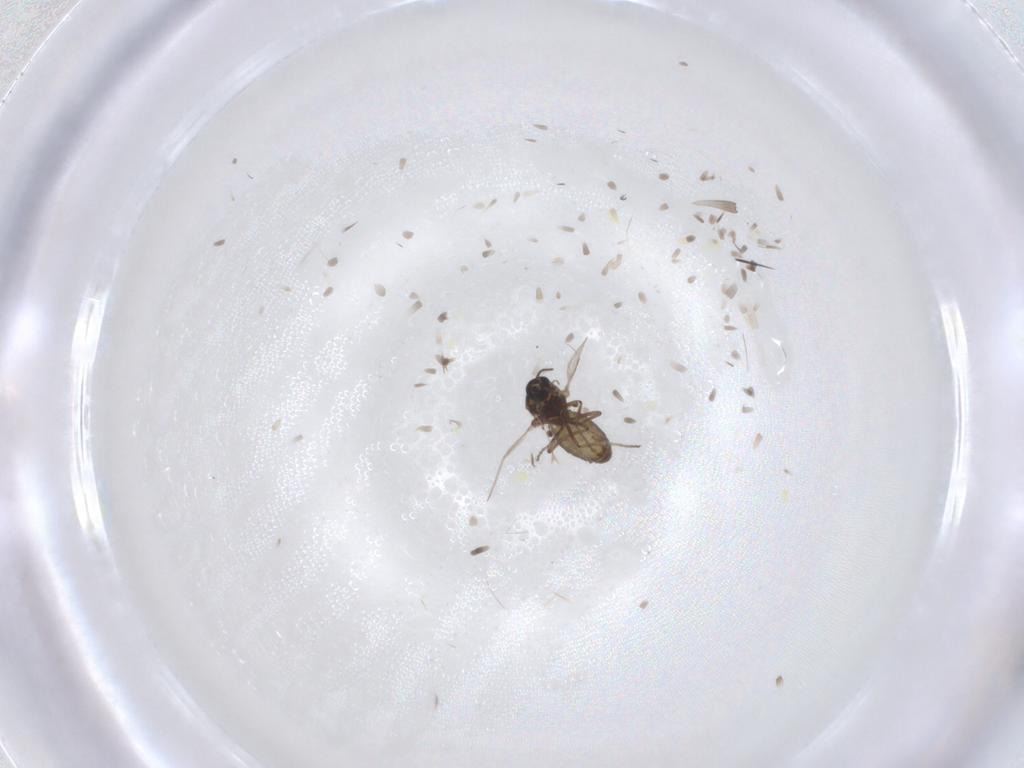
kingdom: Animalia
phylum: Arthropoda
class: Insecta
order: Diptera
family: Ceratopogonidae
